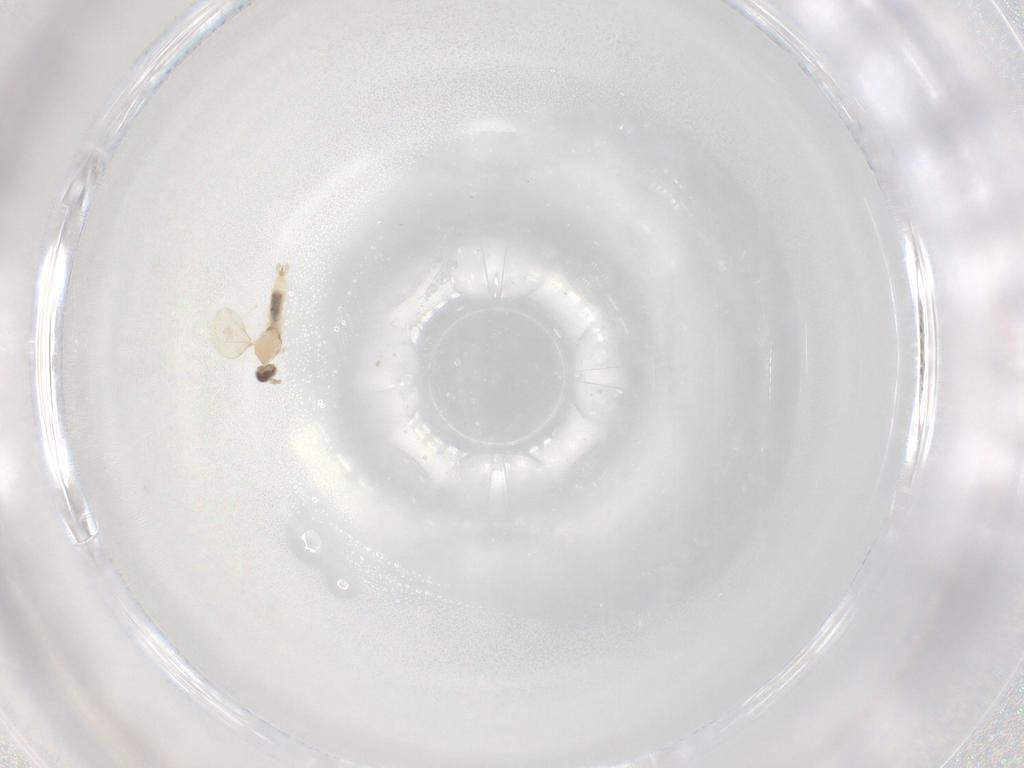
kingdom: Animalia
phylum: Arthropoda
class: Insecta
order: Diptera
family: Cecidomyiidae
